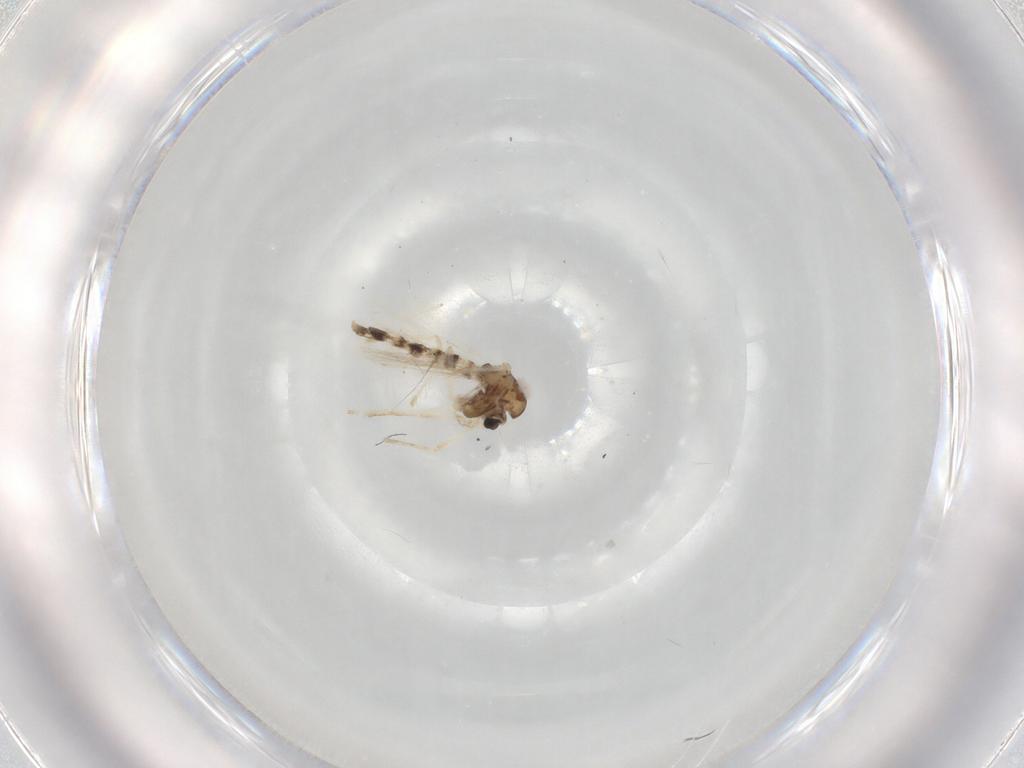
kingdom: Animalia
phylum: Arthropoda
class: Insecta
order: Diptera
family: Chironomidae
